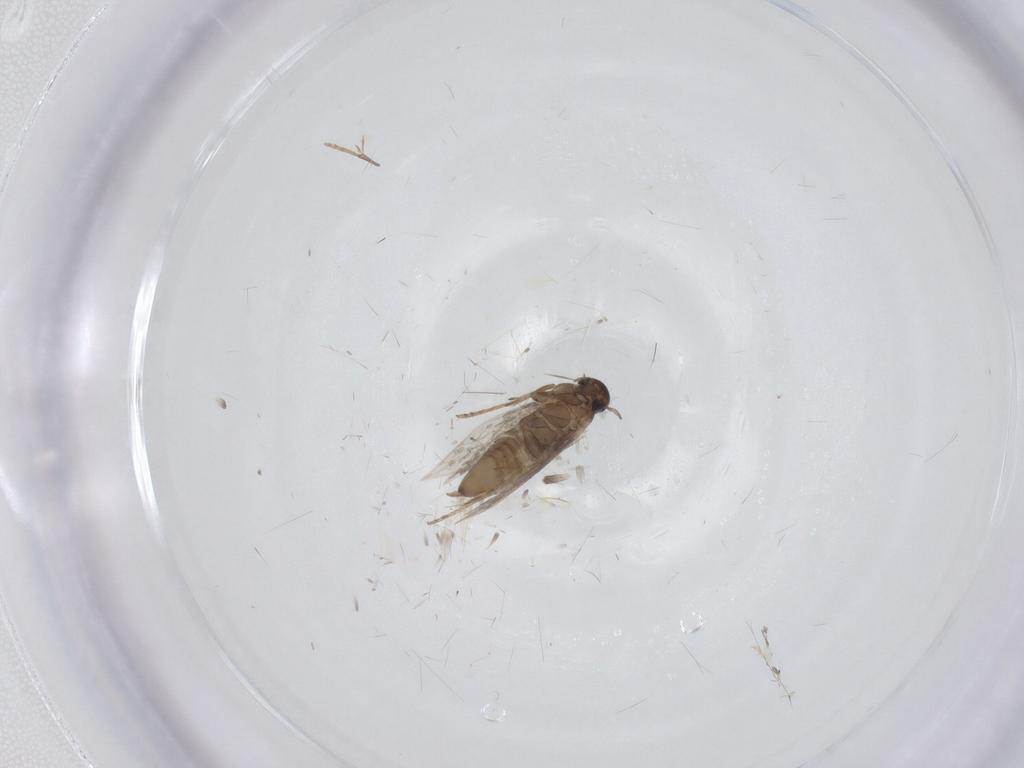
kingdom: Animalia
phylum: Arthropoda
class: Insecta
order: Lepidoptera
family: Heliozelidae
